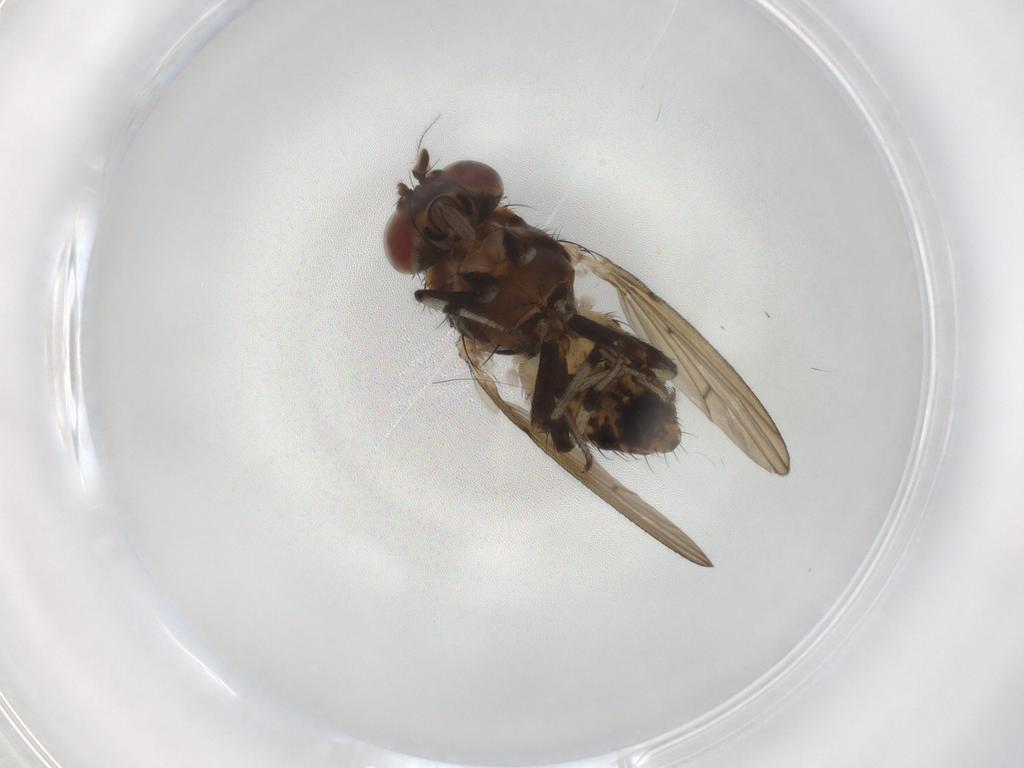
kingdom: Animalia
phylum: Arthropoda
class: Insecta
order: Diptera
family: Lauxaniidae
